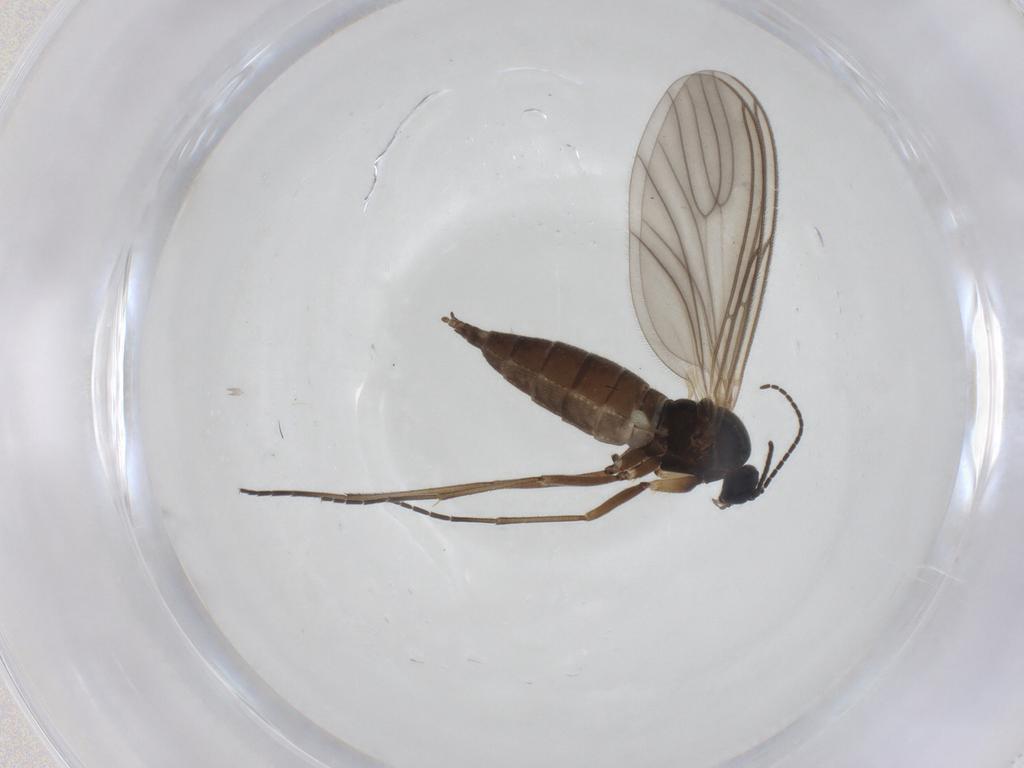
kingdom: Animalia
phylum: Arthropoda
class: Insecta
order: Diptera
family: Sciaridae
